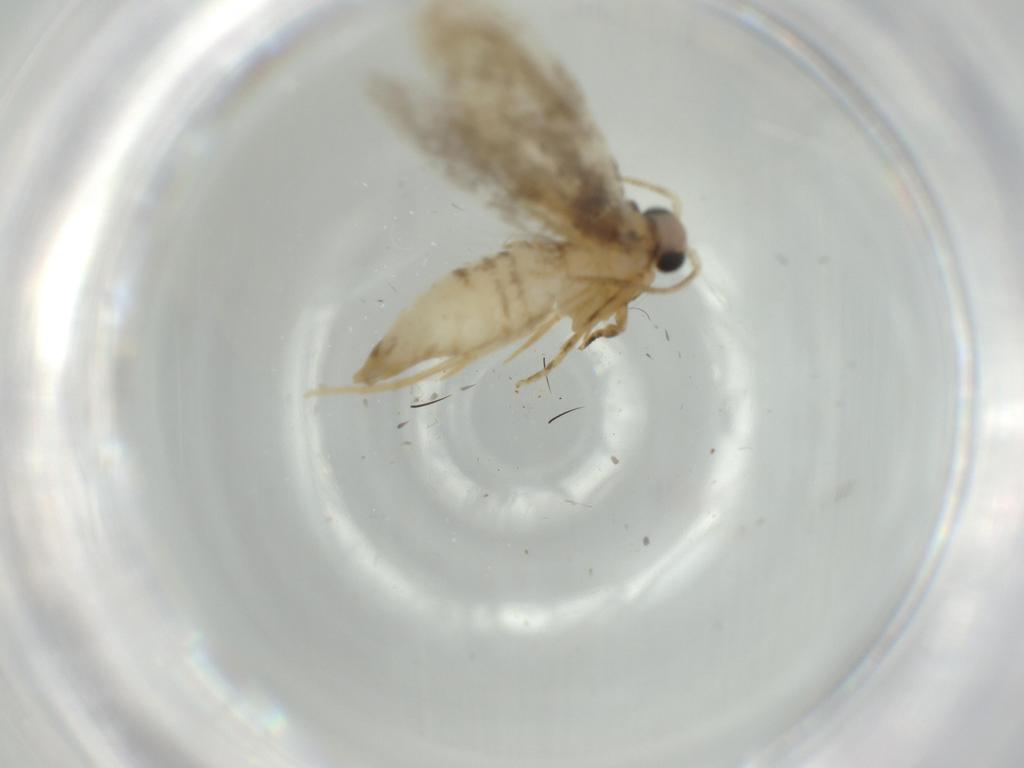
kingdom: Animalia
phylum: Arthropoda
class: Insecta
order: Lepidoptera
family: Tineidae
